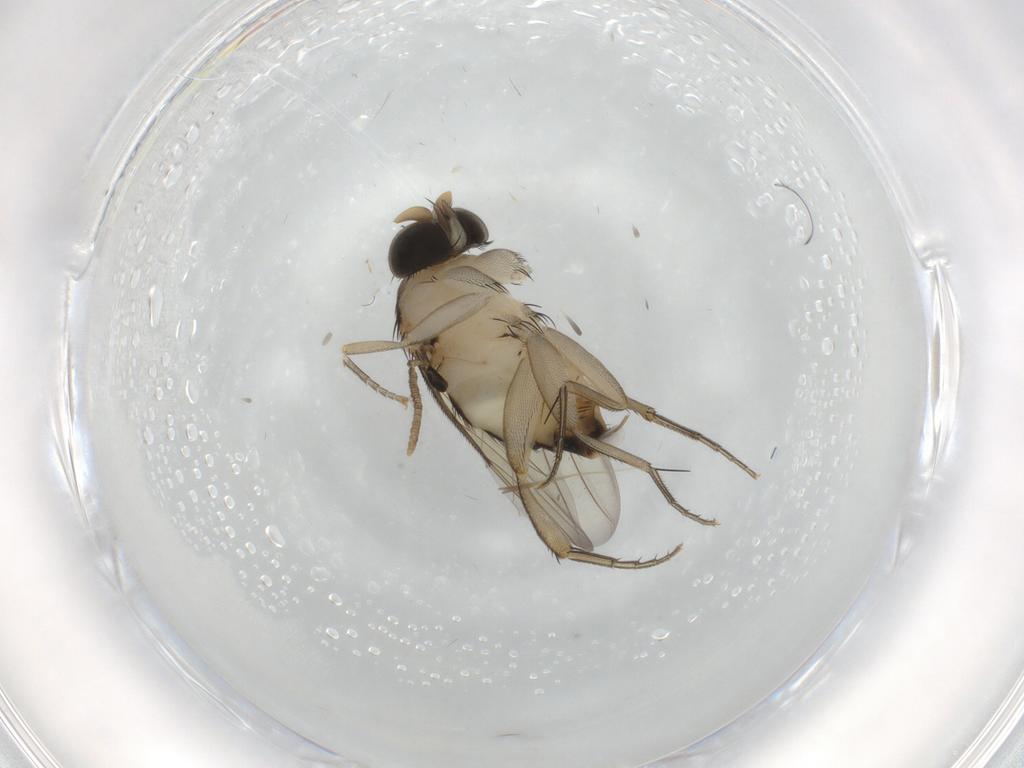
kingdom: Animalia
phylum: Arthropoda
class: Insecta
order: Diptera
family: Phoridae
